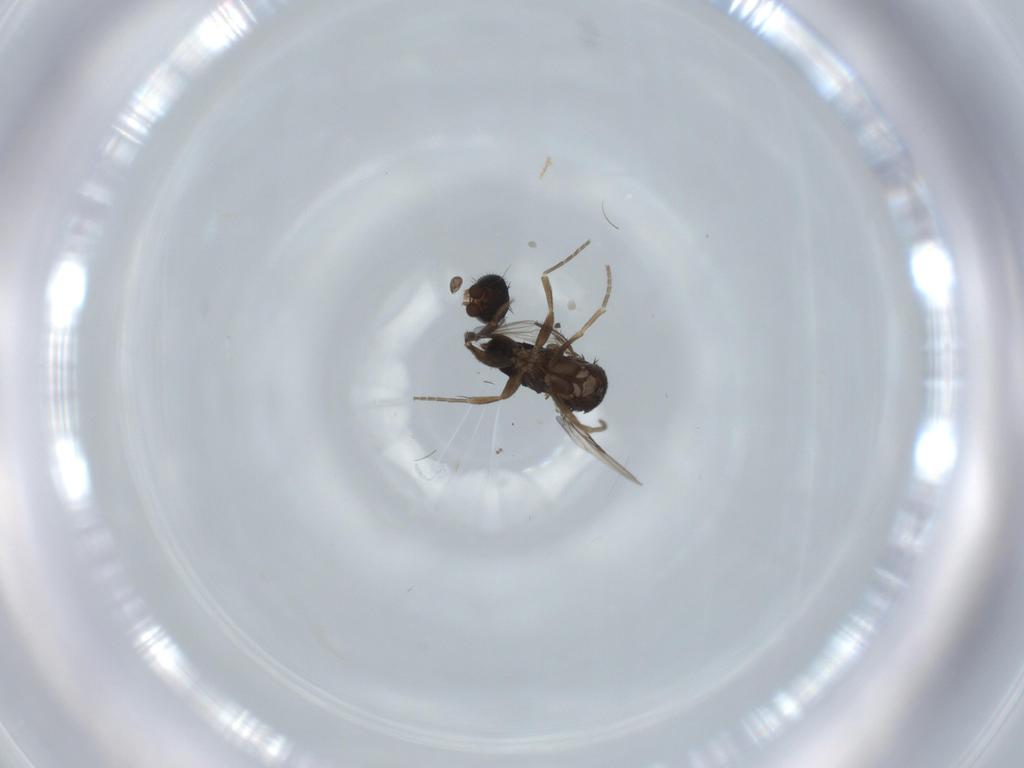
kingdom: Animalia
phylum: Arthropoda
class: Insecta
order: Diptera
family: Phoridae
